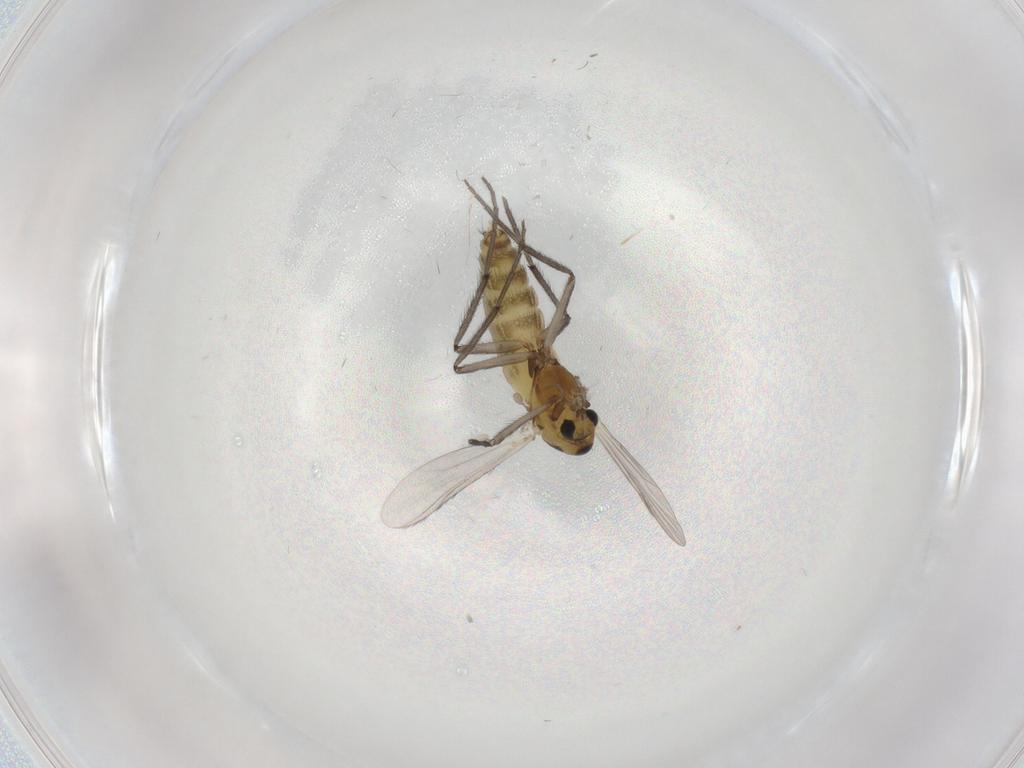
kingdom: Animalia
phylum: Arthropoda
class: Insecta
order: Diptera
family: Chironomidae
